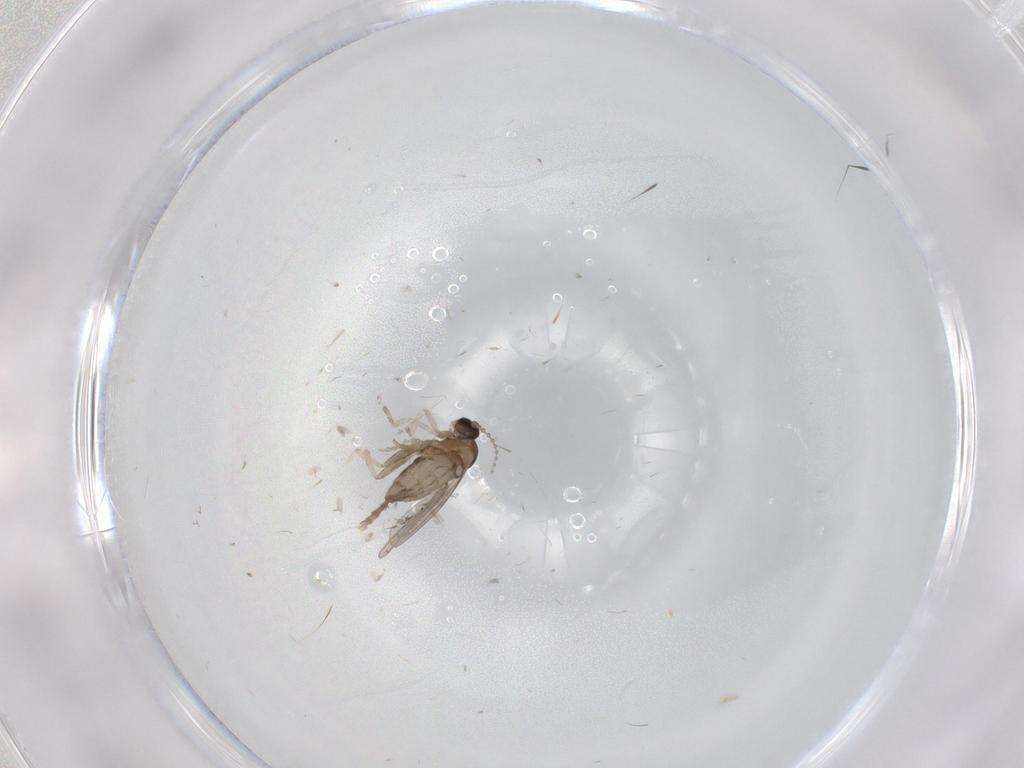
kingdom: Animalia
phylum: Arthropoda
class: Insecta
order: Diptera
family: Cecidomyiidae
